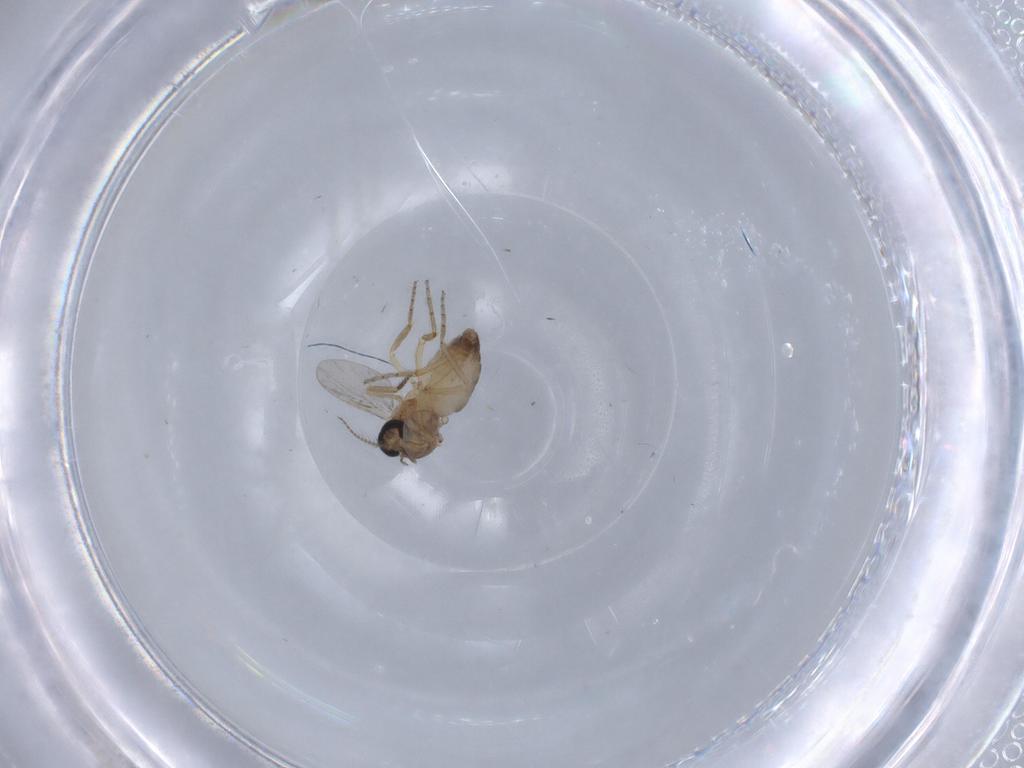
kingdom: Animalia
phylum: Arthropoda
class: Insecta
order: Diptera
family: Ceratopogonidae
